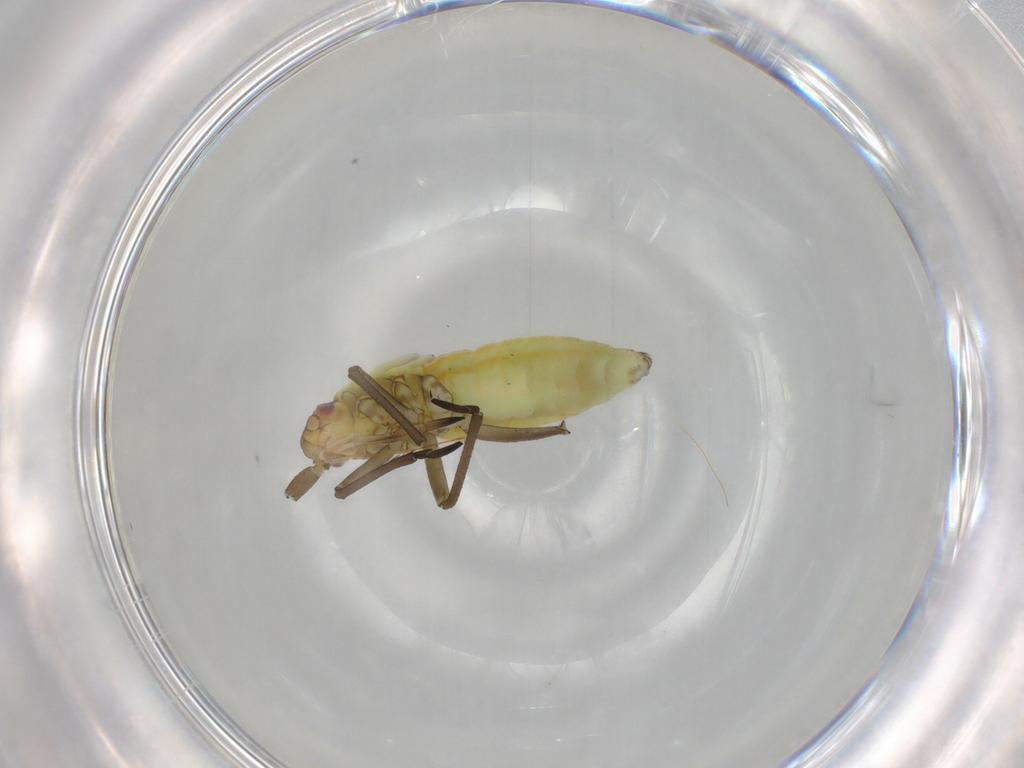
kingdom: Animalia
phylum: Arthropoda
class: Insecta
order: Hemiptera
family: Miridae
